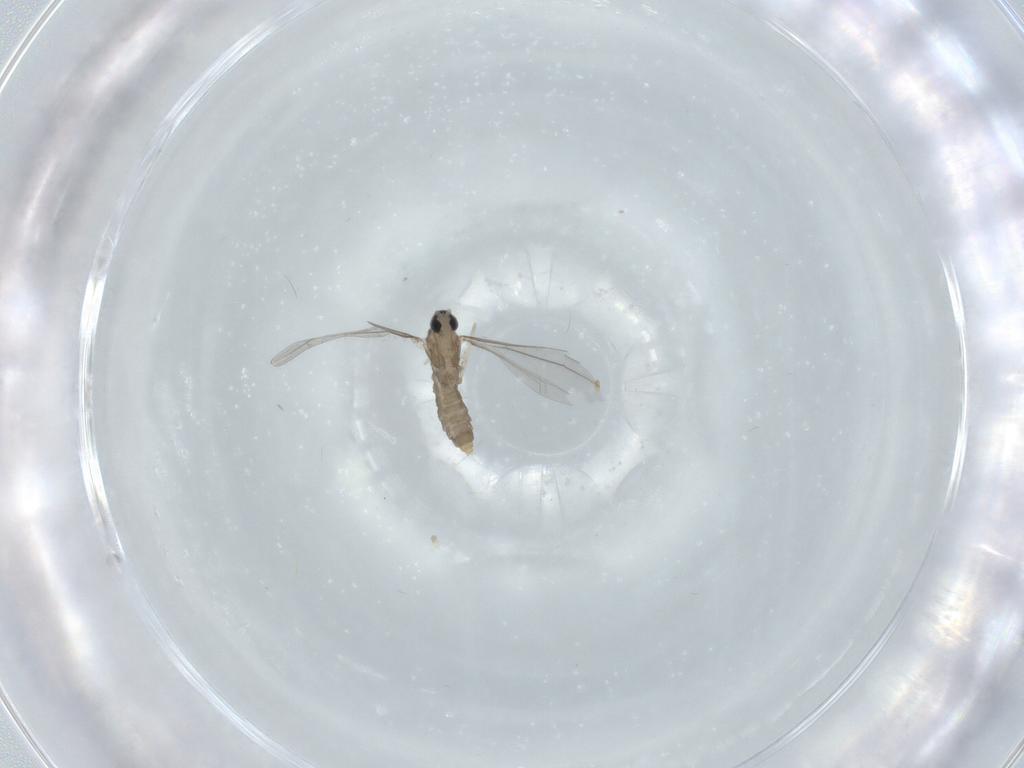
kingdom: Animalia
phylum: Arthropoda
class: Insecta
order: Diptera
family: Cecidomyiidae
